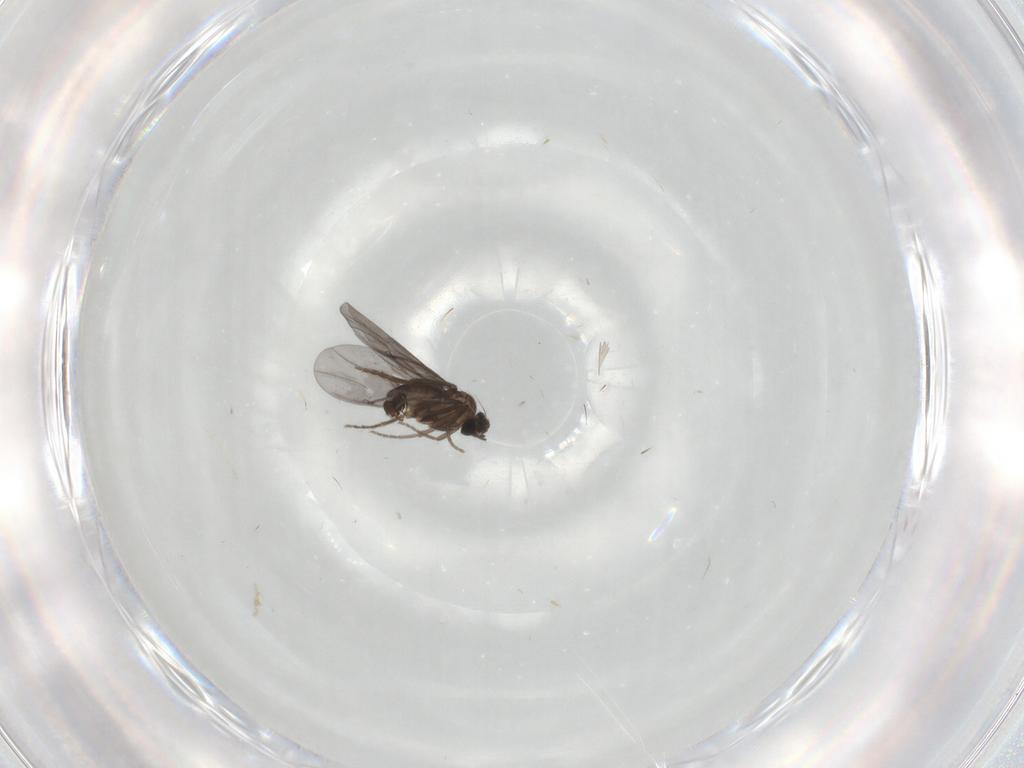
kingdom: Animalia
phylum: Arthropoda
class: Insecta
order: Diptera
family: Phoridae
